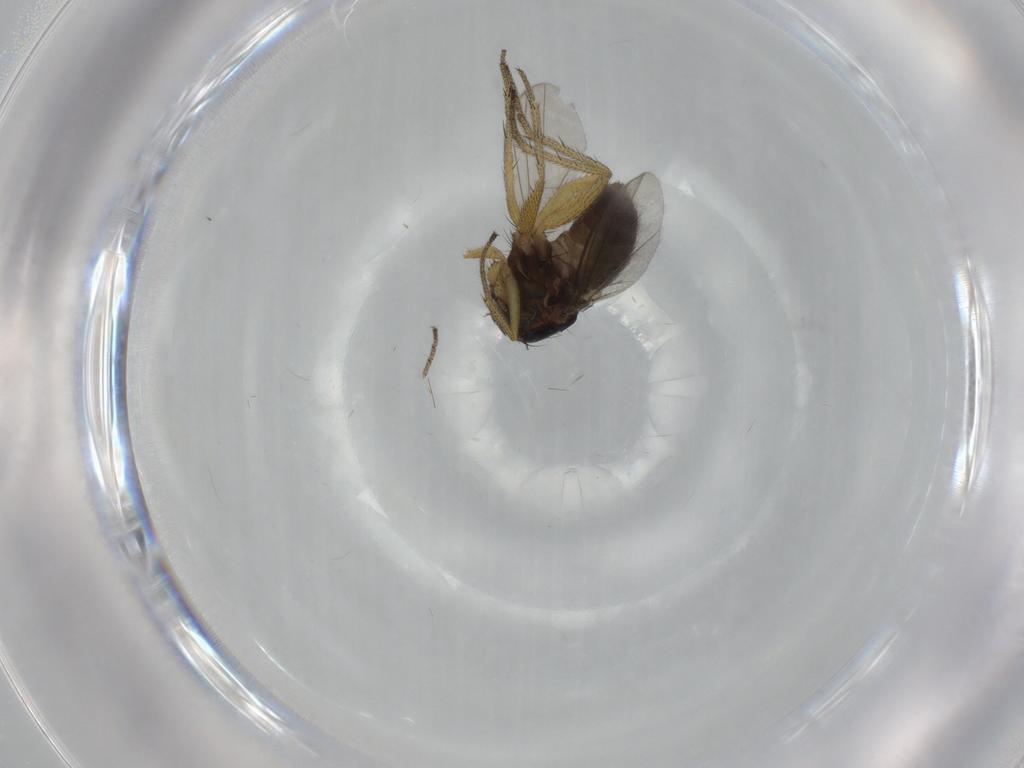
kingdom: Animalia
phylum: Arthropoda
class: Insecta
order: Diptera
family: Dolichopodidae
